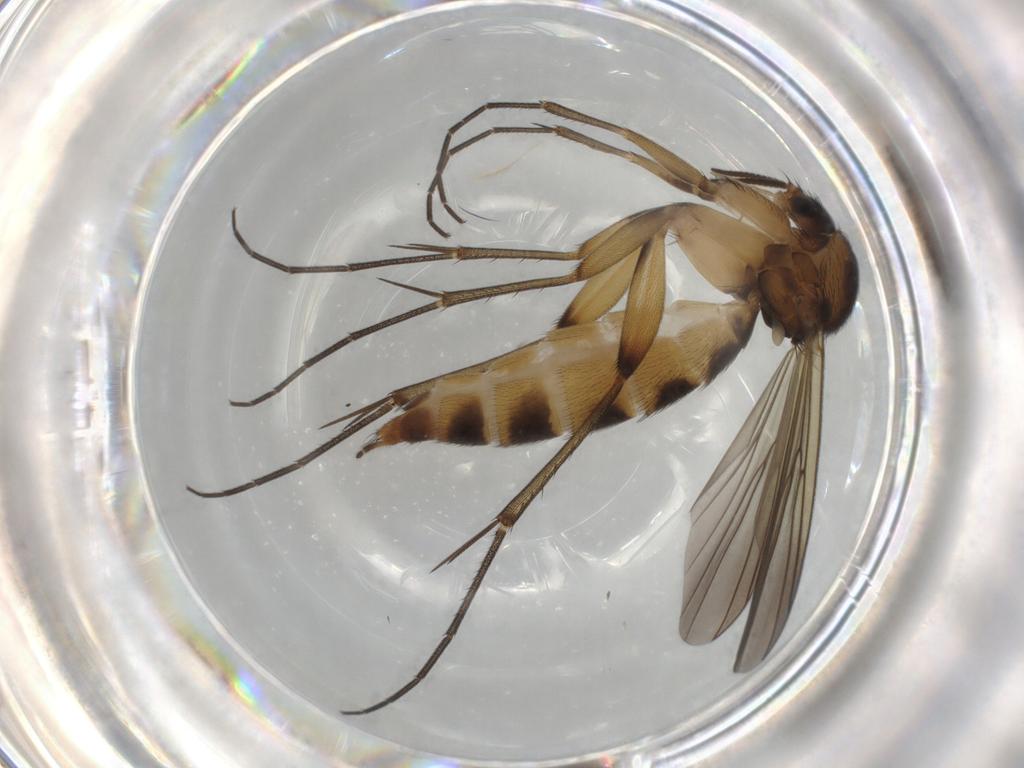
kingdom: Animalia
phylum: Arthropoda
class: Insecta
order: Diptera
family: Mycetophilidae
